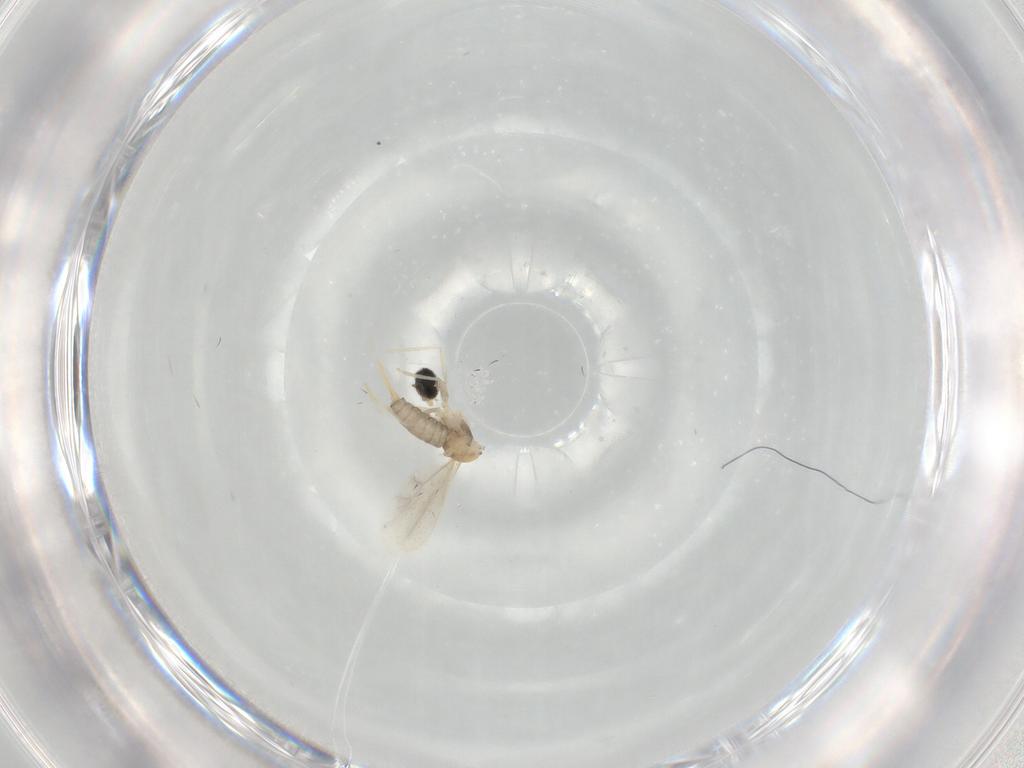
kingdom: Animalia
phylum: Arthropoda
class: Insecta
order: Diptera
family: Cecidomyiidae
